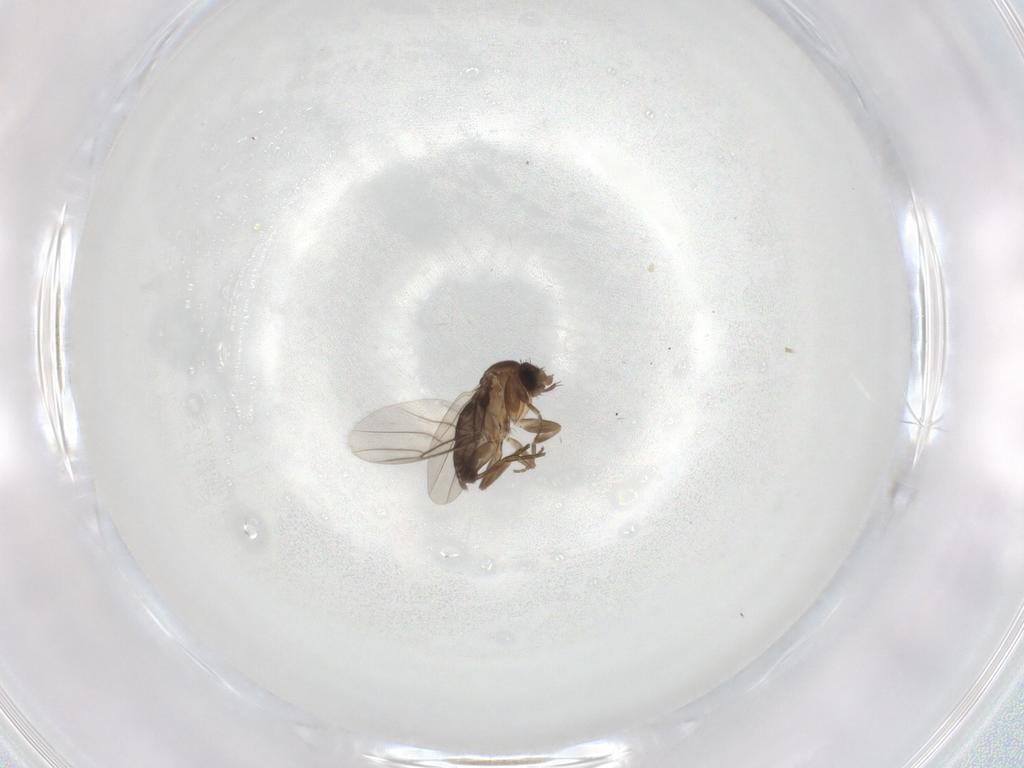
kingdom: Animalia
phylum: Arthropoda
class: Insecta
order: Diptera
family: Phoridae
